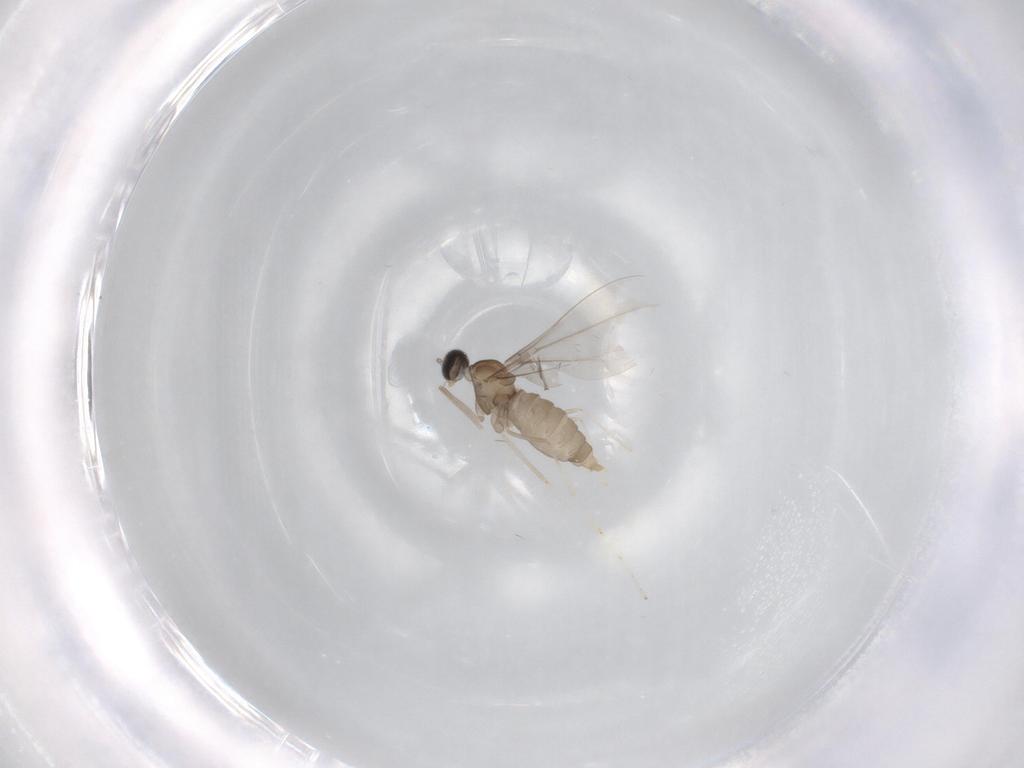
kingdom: Animalia
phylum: Arthropoda
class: Insecta
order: Diptera
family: Cecidomyiidae
